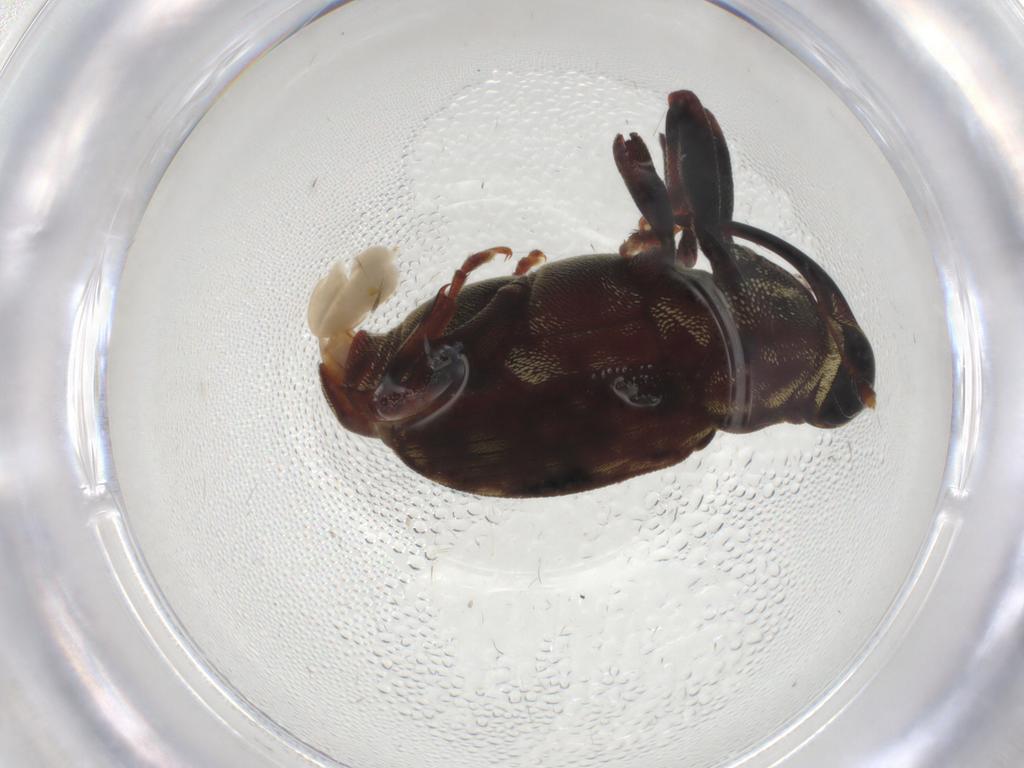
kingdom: Animalia
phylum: Arthropoda
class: Insecta
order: Coleoptera
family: Curculionidae
